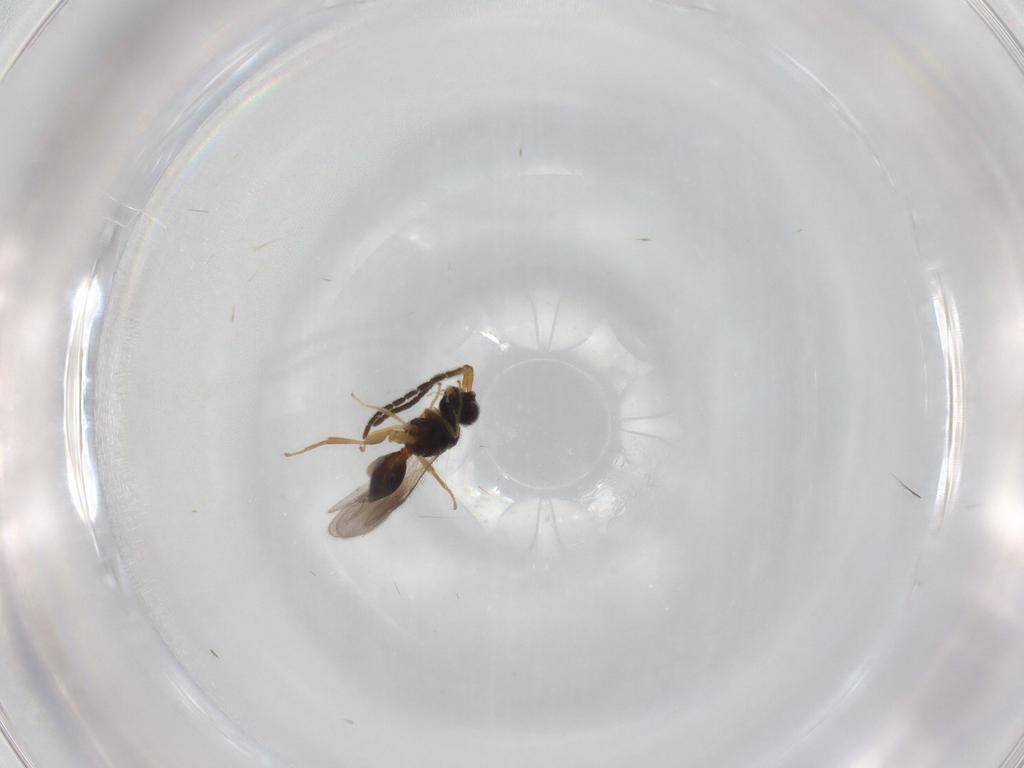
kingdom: Animalia
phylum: Arthropoda
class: Insecta
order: Hymenoptera
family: Megaspilidae
